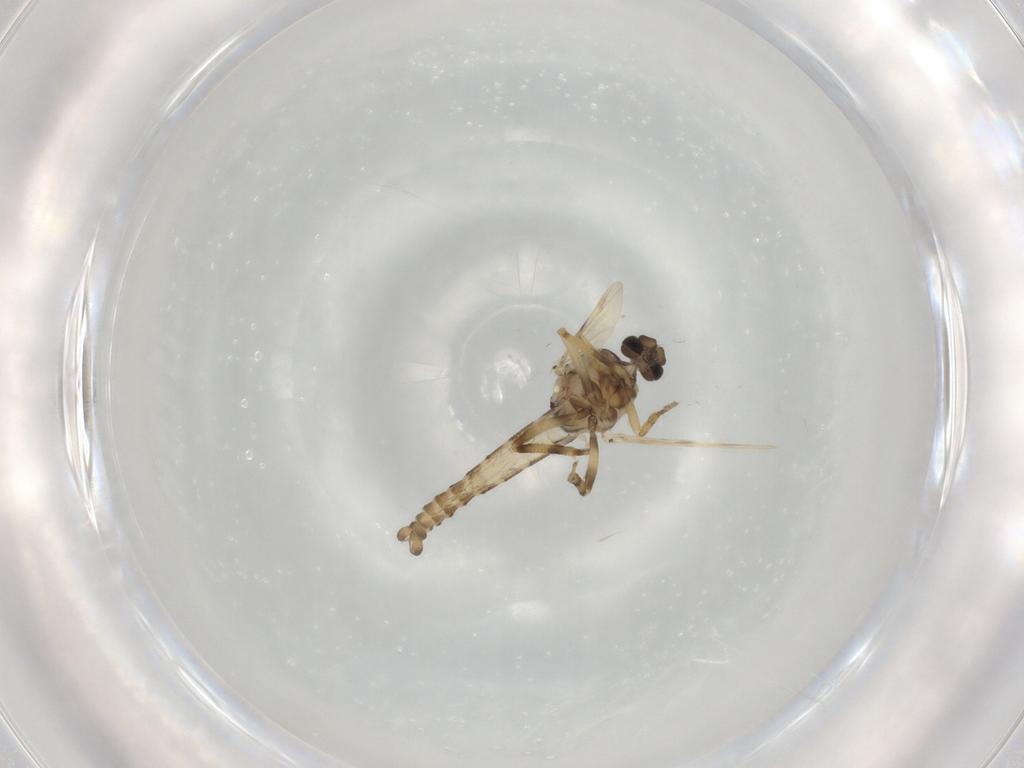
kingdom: Animalia
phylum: Arthropoda
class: Insecta
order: Diptera
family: Ceratopogonidae
